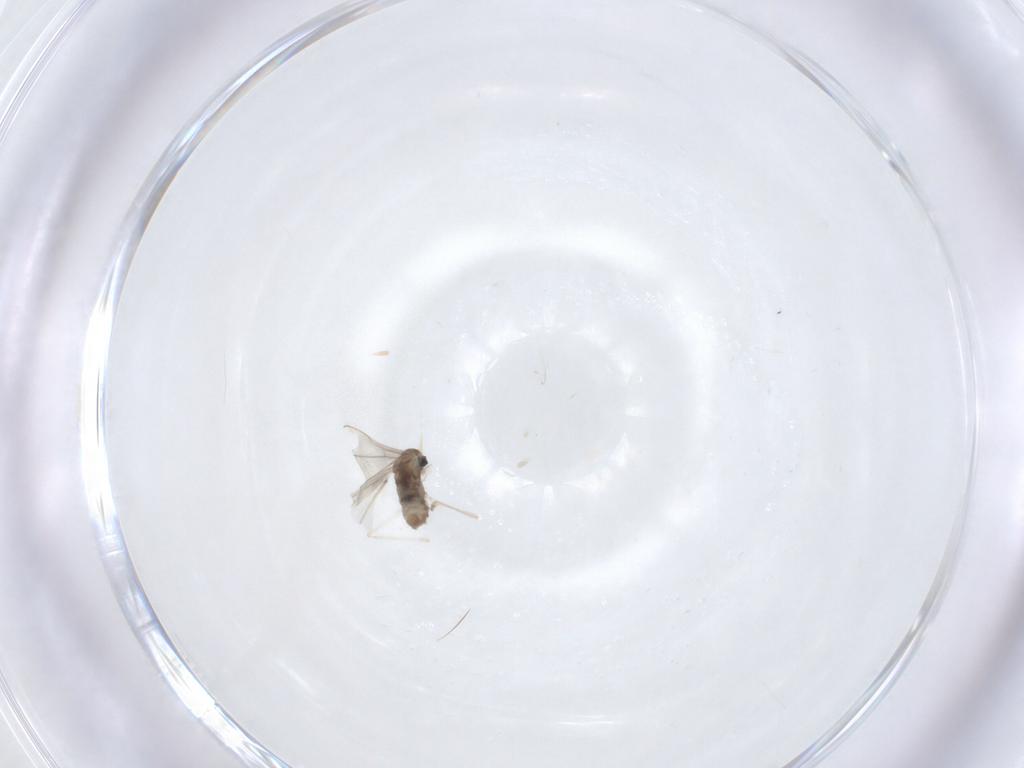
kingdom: Animalia
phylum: Arthropoda
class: Insecta
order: Diptera
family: Cecidomyiidae
